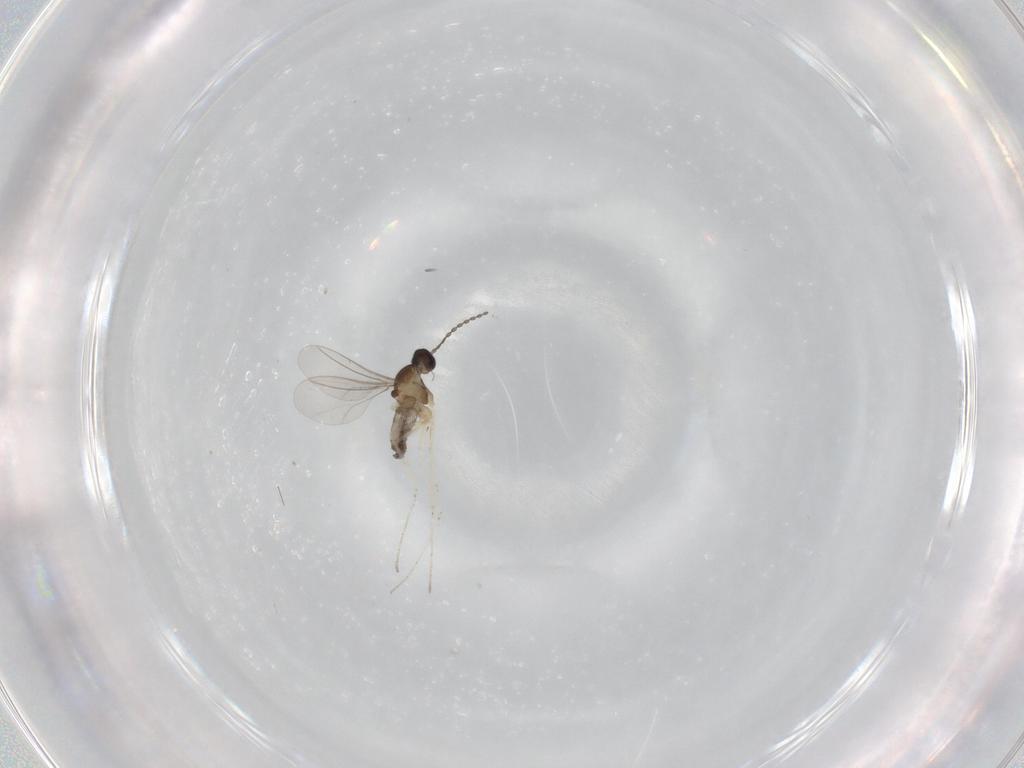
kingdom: Animalia
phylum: Arthropoda
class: Insecta
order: Diptera
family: Cecidomyiidae
